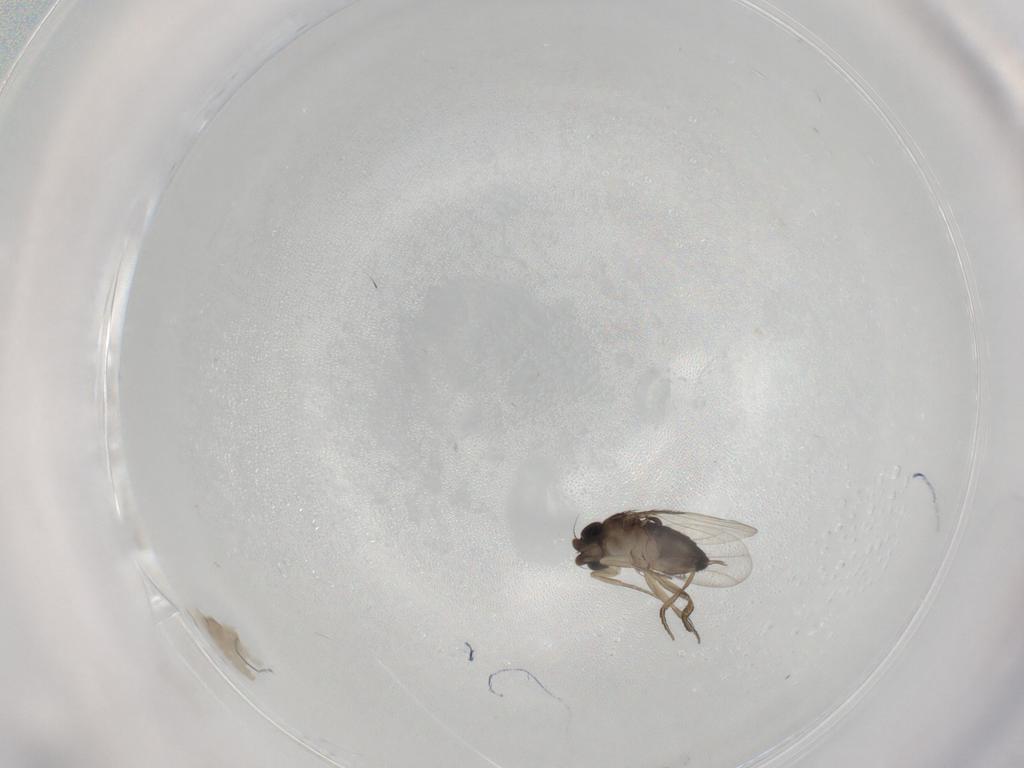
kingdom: Animalia
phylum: Arthropoda
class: Insecta
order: Diptera
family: Phoridae
